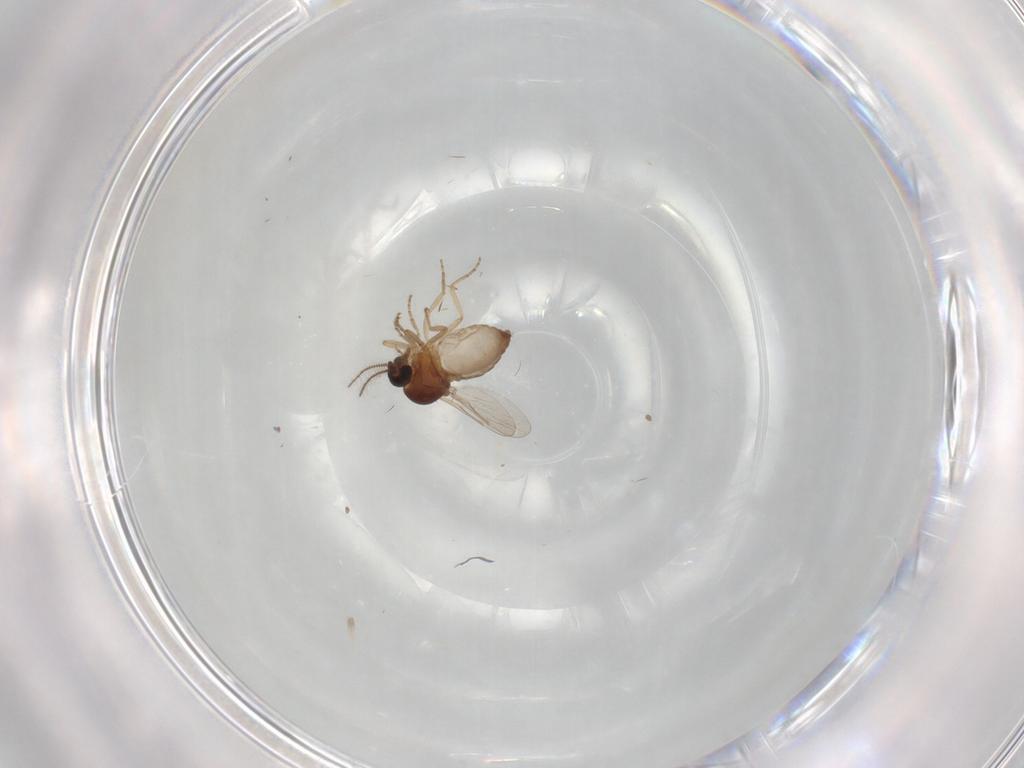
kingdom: Animalia
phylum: Arthropoda
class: Insecta
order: Diptera
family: Ceratopogonidae
